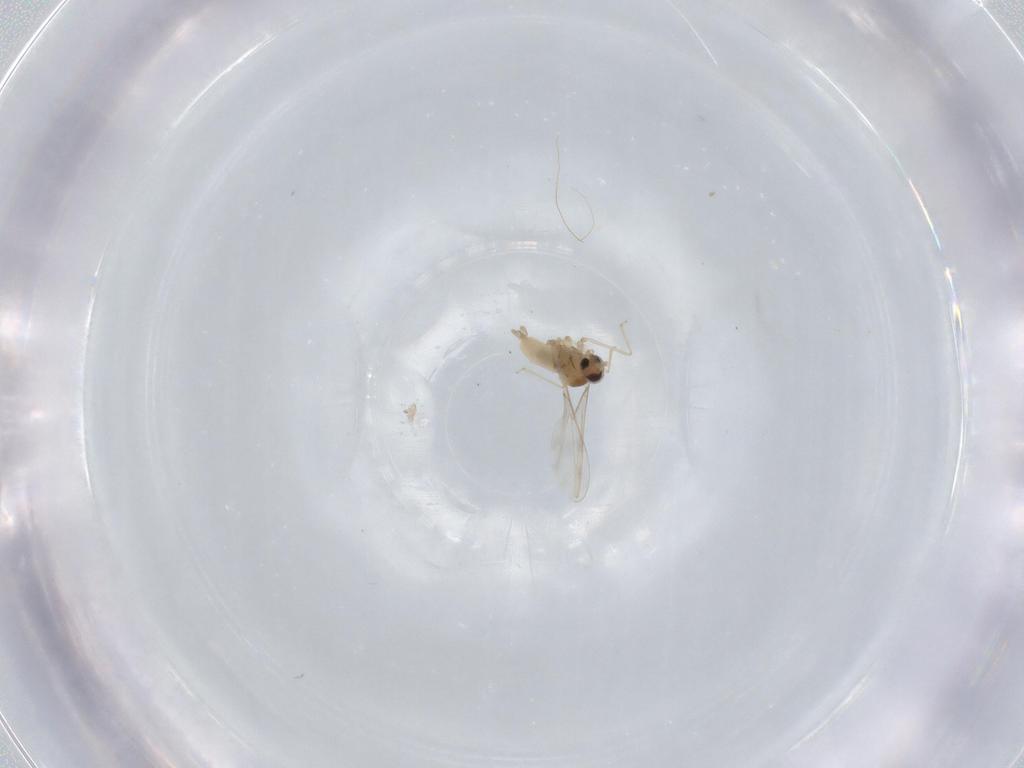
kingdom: Animalia
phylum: Arthropoda
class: Insecta
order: Diptera
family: Cecidomyiidae
